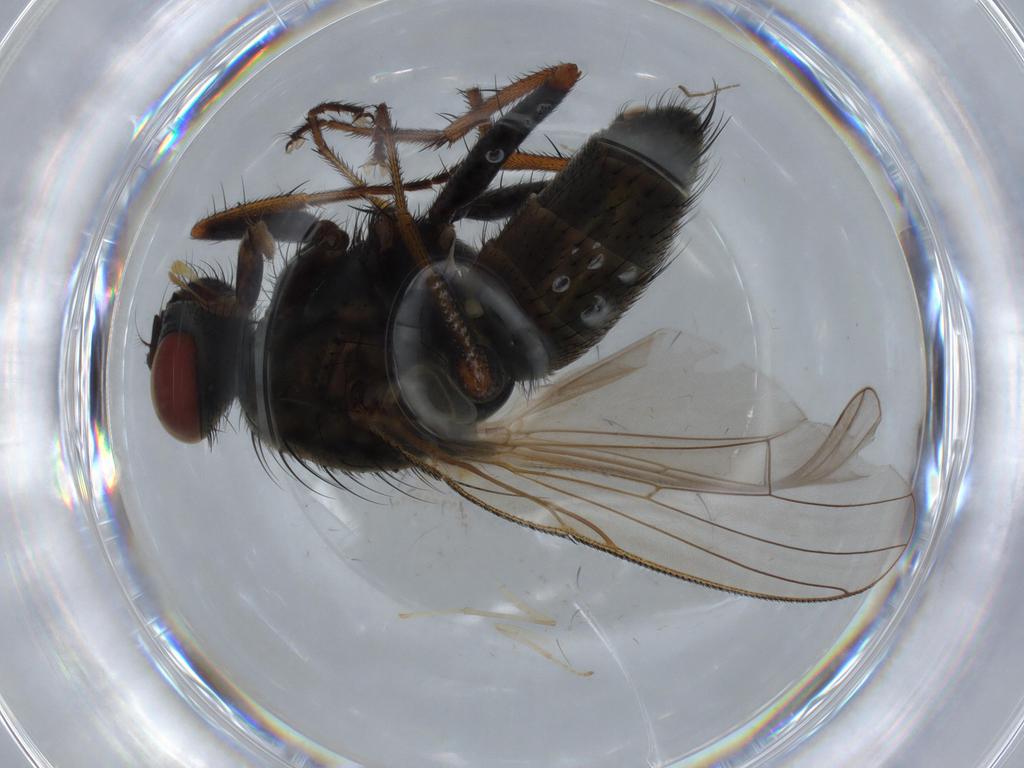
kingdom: Animalia
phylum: Arthropoda
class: Insecta
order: Diptera
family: Muscidae
